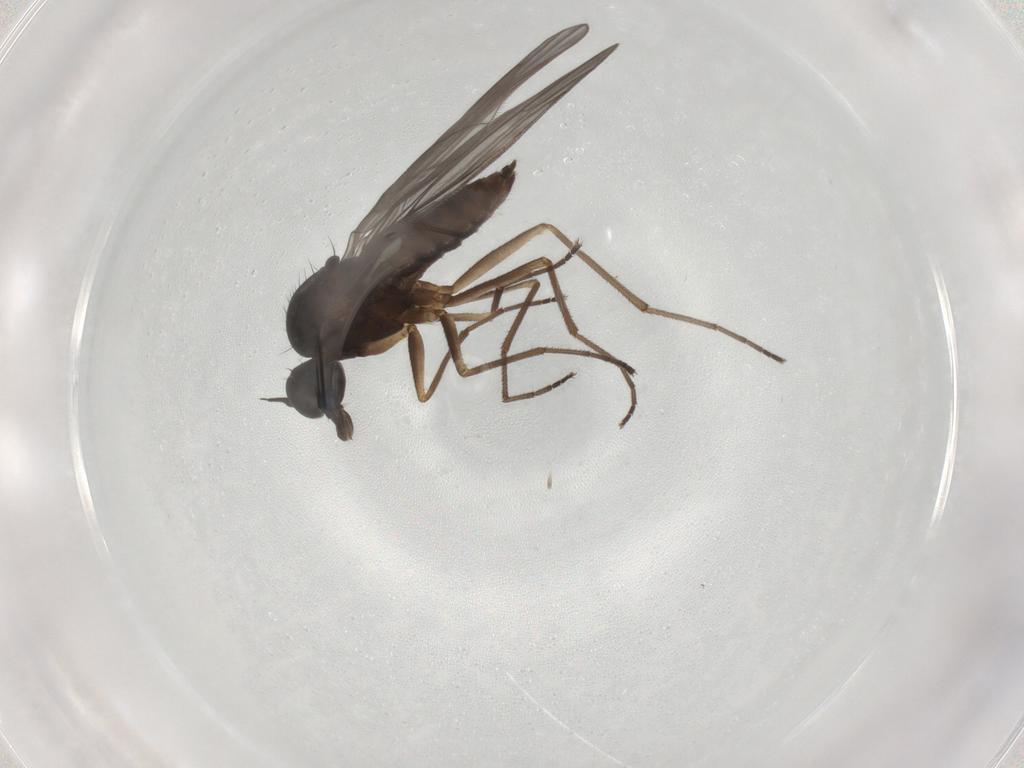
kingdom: Animalia
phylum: Arthropoda
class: Insecta
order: Diptera
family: Empididae
